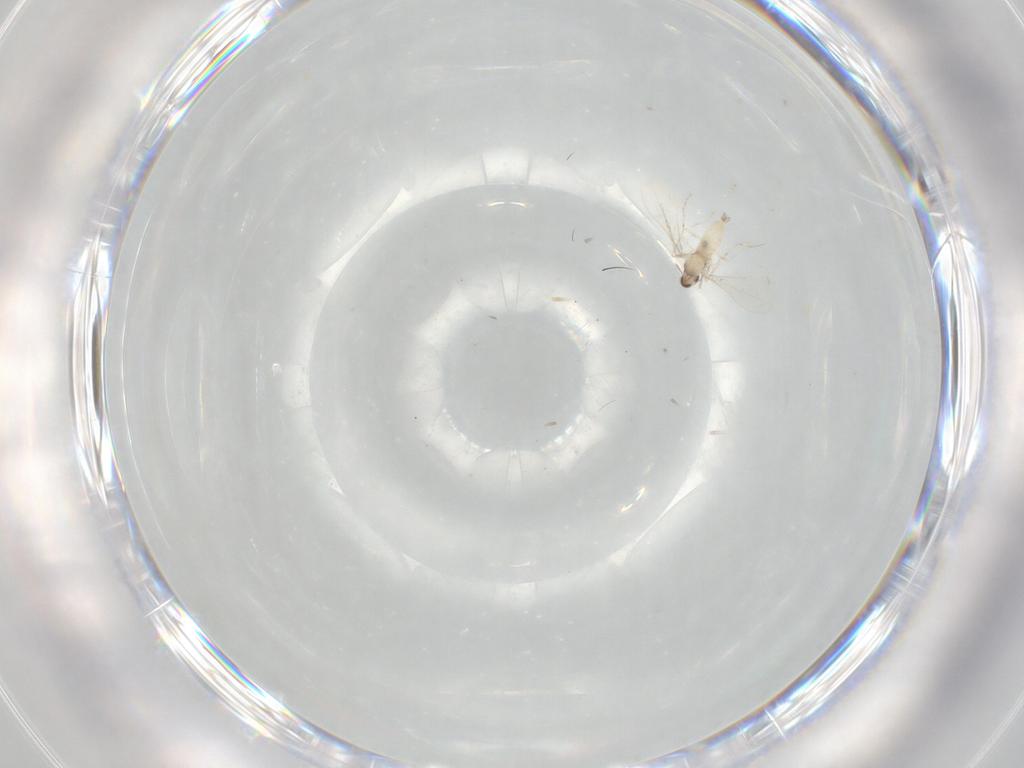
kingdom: Animalia
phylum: Arthropoda
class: Insecta
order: Diptera
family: Cecidomyiidae
